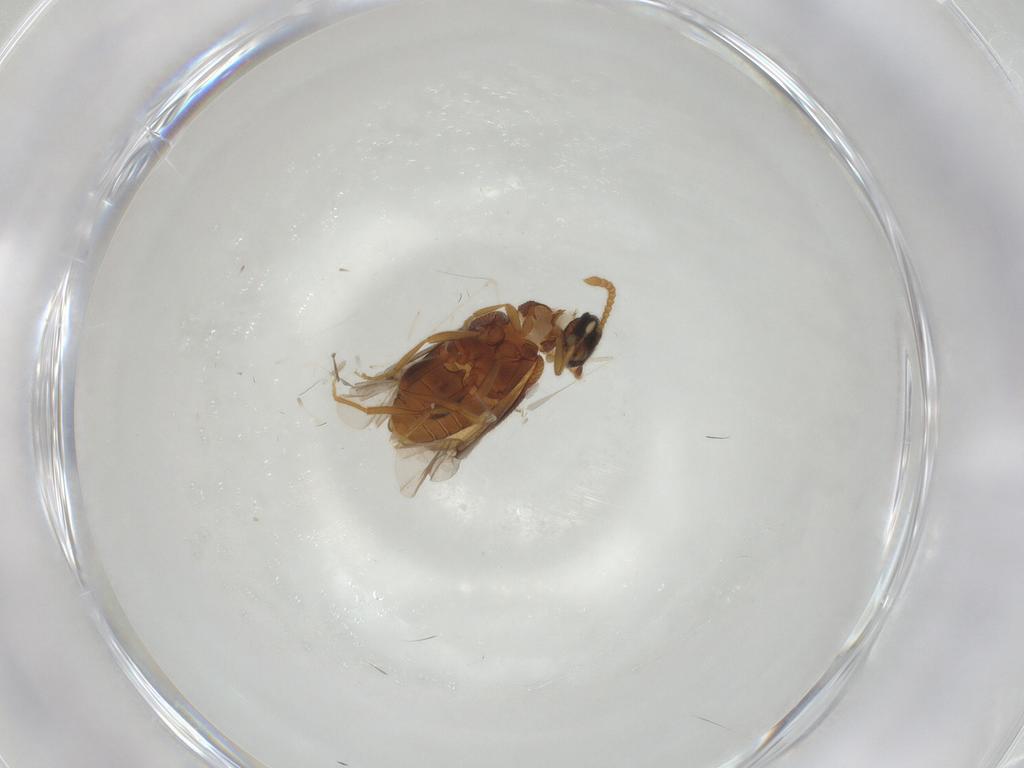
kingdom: Animalia
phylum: Arthropoda
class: Insecta
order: Coleoptera
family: Aderidae
